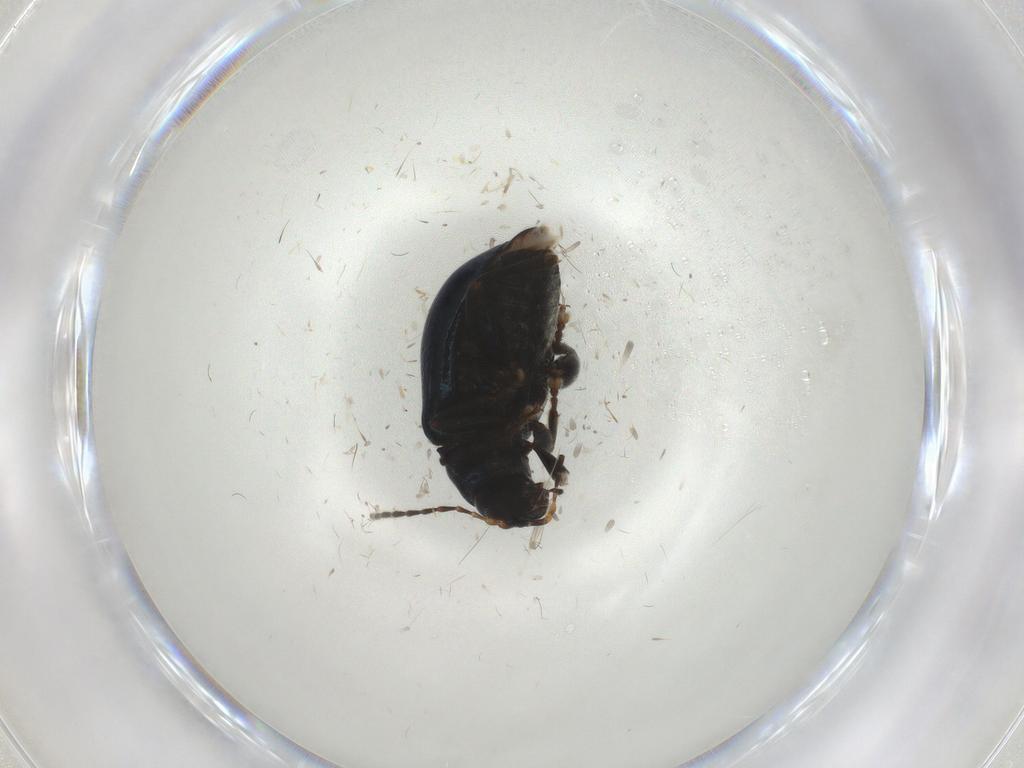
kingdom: Animalia
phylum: Arthropoda
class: Insecta
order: Coleoptera
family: Chrysomelidae
